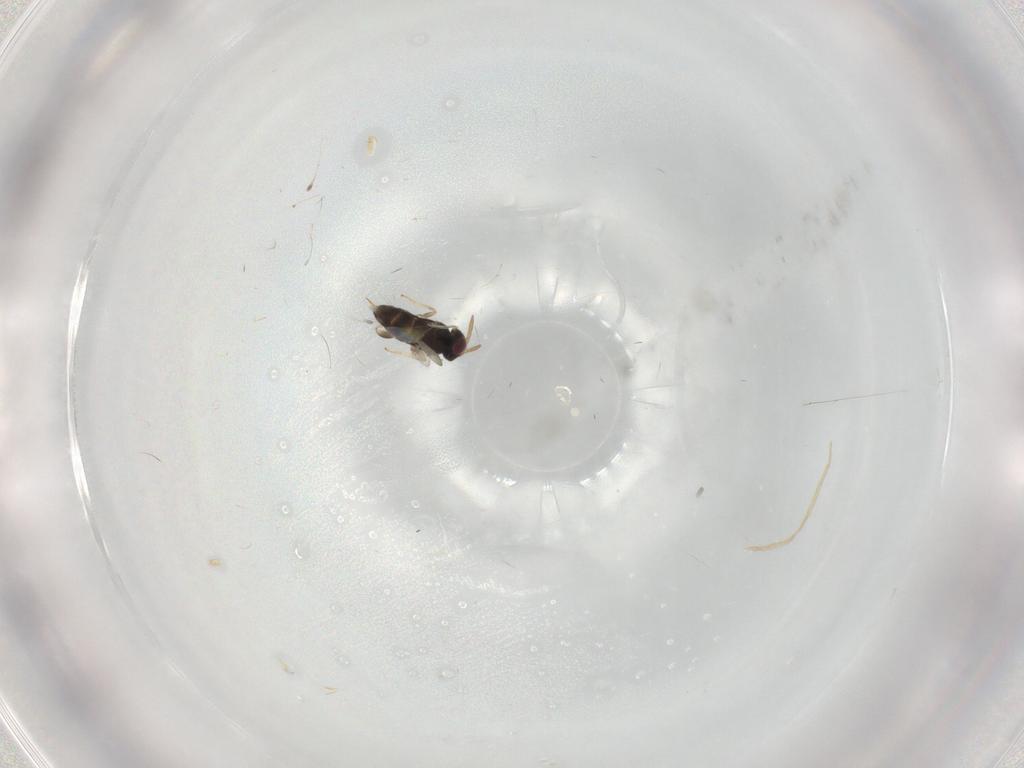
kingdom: Animalia
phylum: Arthropoda
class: Insecta
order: Hymenoptera
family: Aphelinidae
